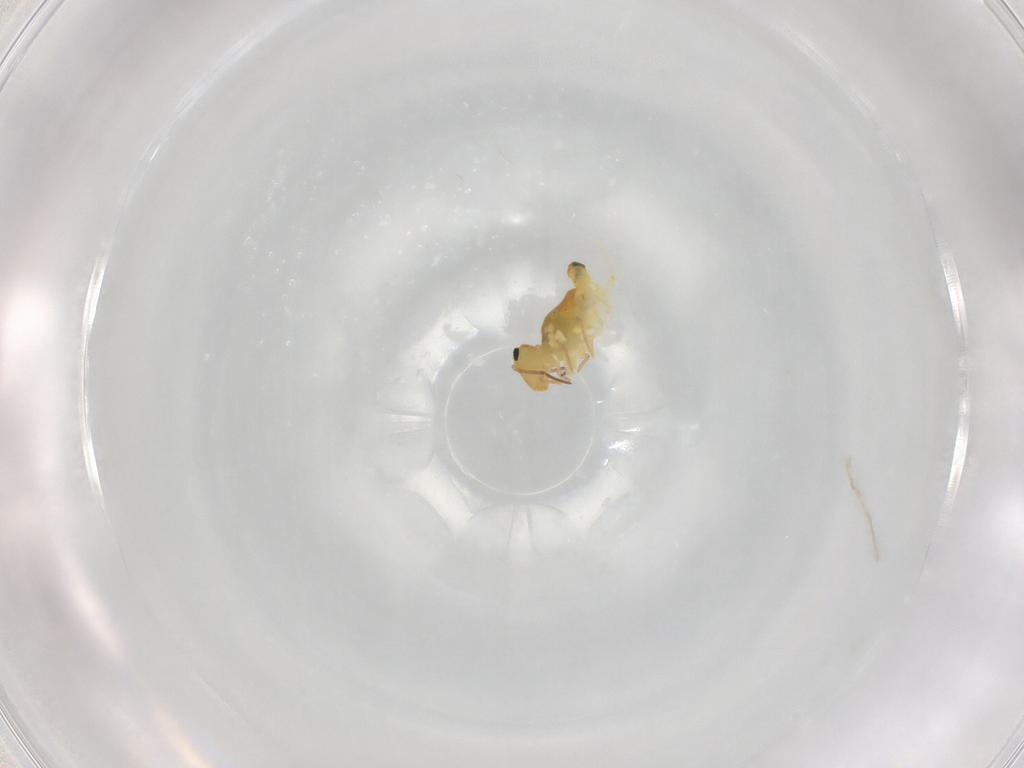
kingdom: Animalia
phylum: Arthropoda
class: Collembola
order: Symphypleona
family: Bourletiellidae
